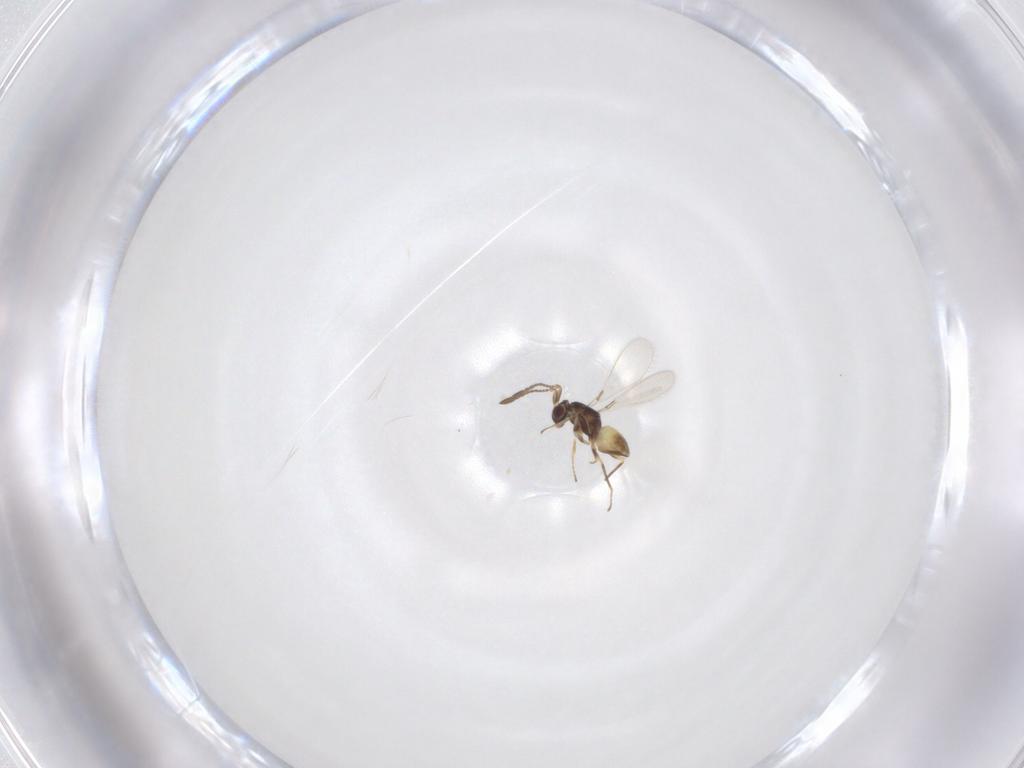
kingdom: Animalia
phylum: Arthropoda
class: Insecta
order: Hymenoptera
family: Mymaridae
